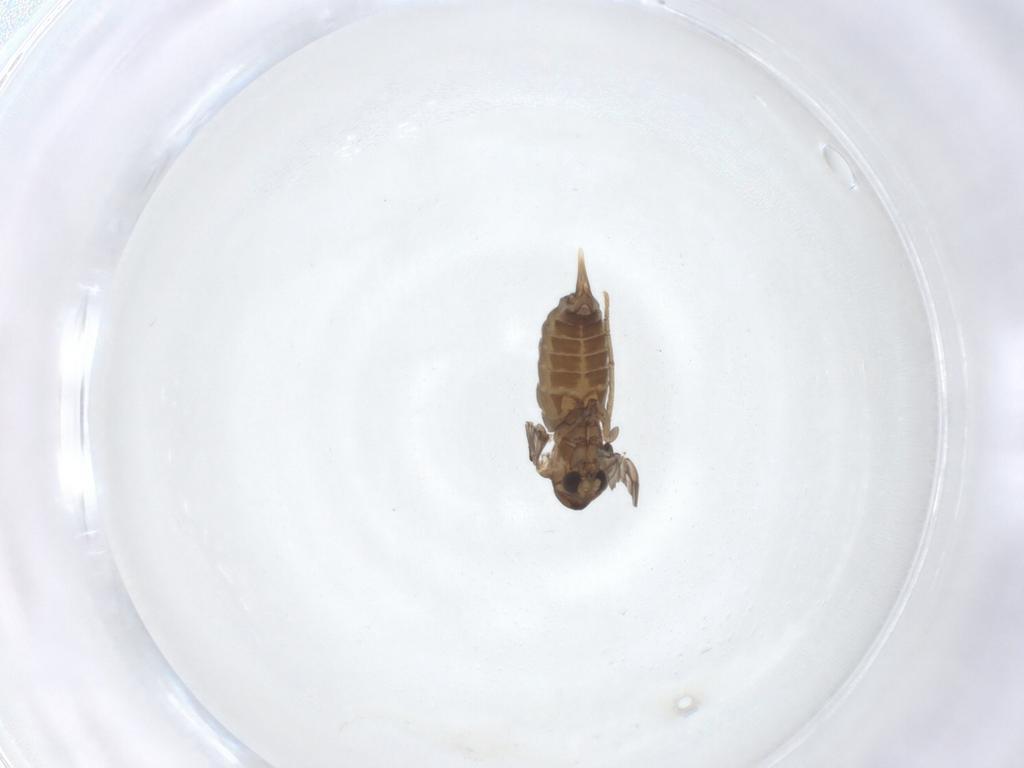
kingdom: Animalia
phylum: Arthropoda
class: Insecta
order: Diptera
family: Psychodidae
